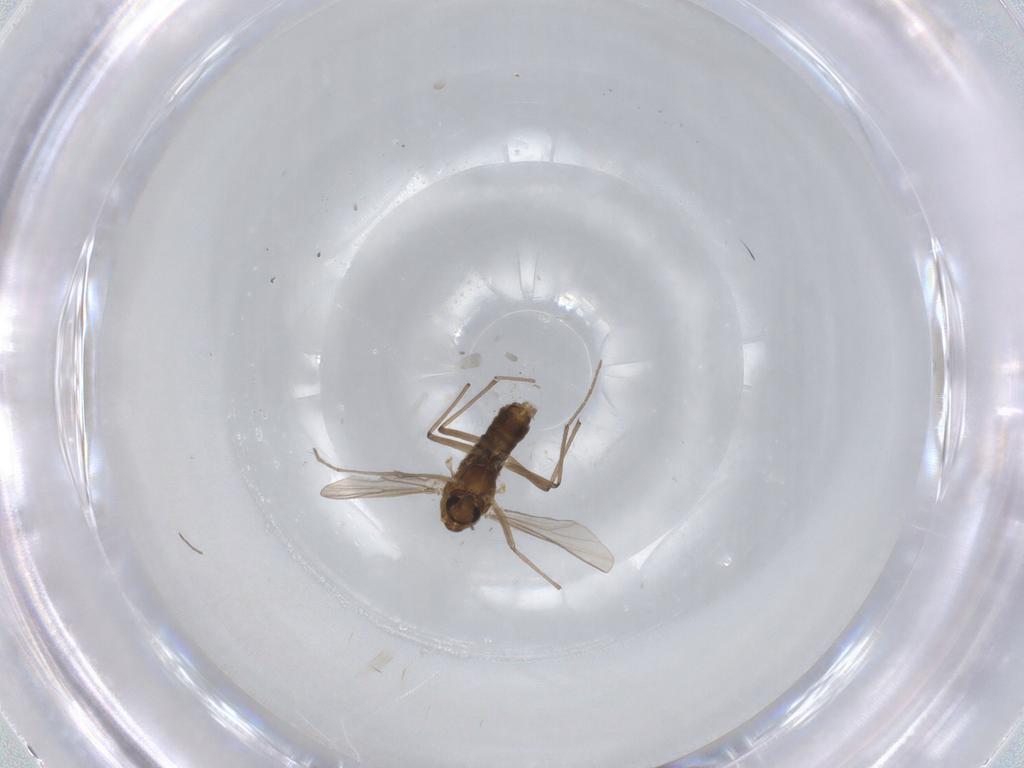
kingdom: Animalia
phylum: Arthropoda
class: Insecta
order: Diptera
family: Chironomidae
